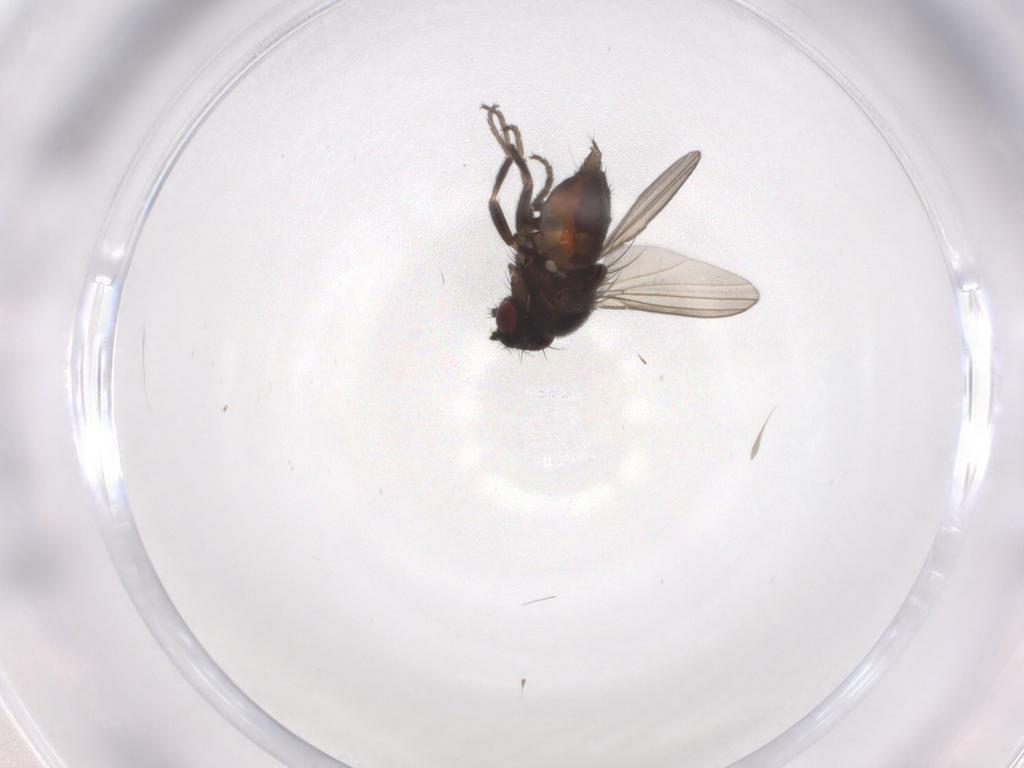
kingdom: Animalia
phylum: Arthropoda
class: Insecta
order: Diptera
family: Milichiidae
